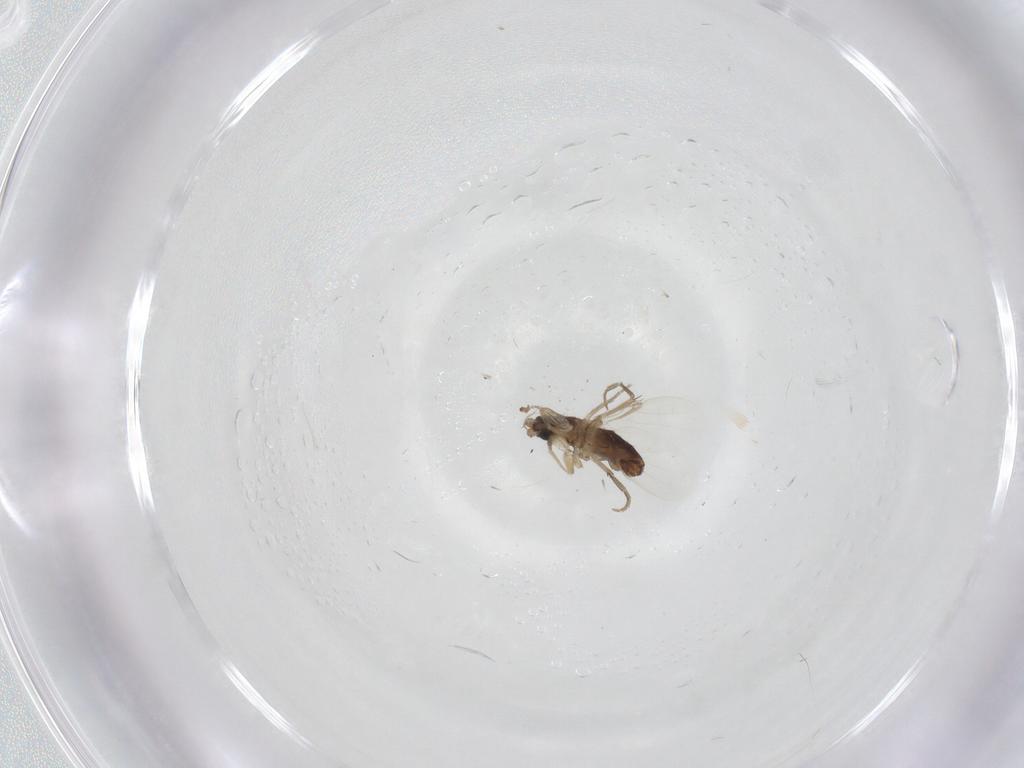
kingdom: Animalia
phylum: Arthropoda
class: Insecta
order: Diptera
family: Phoridae
